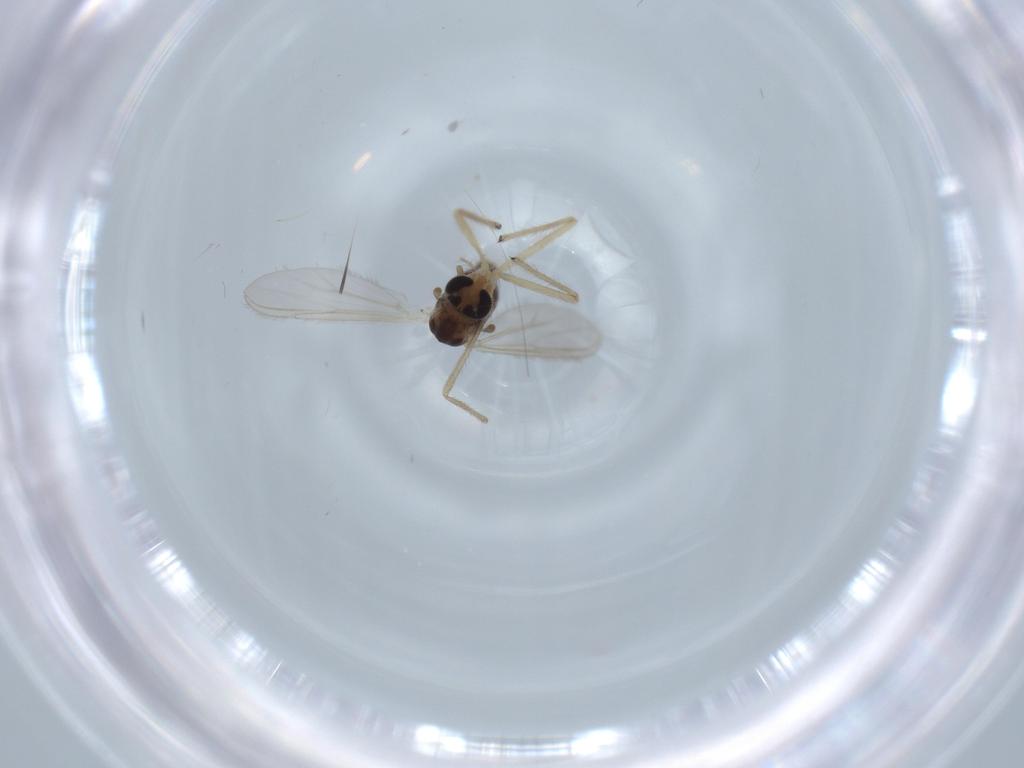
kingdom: Animalia
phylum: Arthropoda
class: Insecta
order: Diptera
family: Chironomidae
